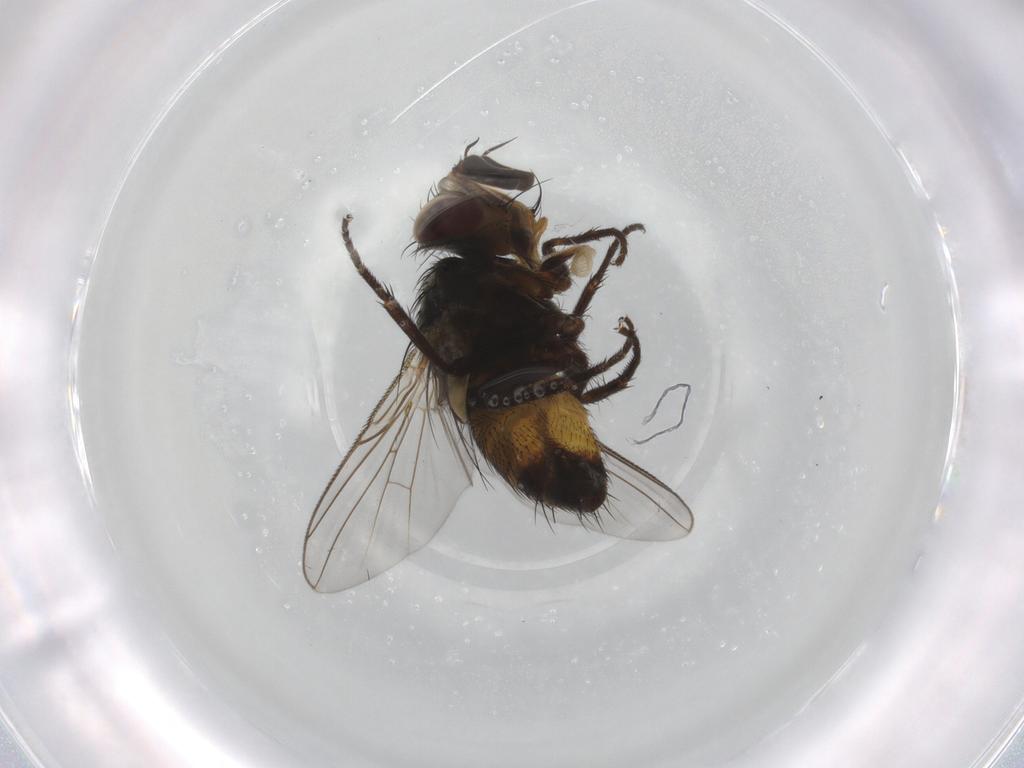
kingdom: Animalia
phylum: Arthropoda
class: Insecta
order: Diptera
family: Tachinidae
